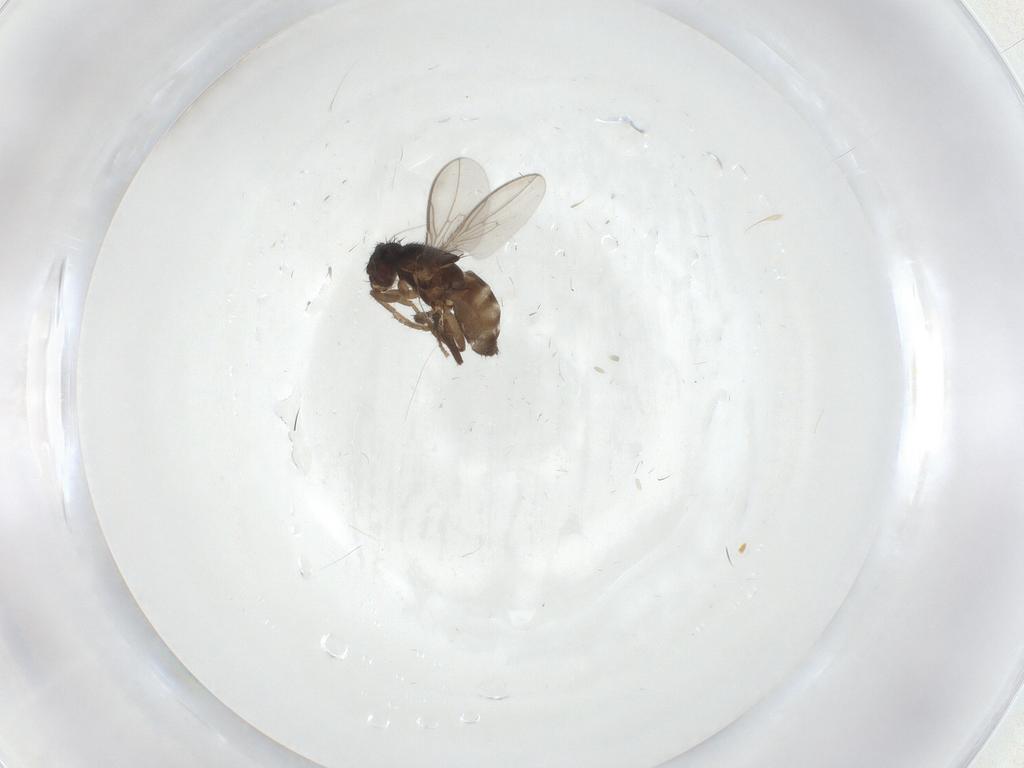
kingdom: Animalia
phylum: Arthropoda
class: Insecta
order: Diptera
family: Sphaeroceridae
